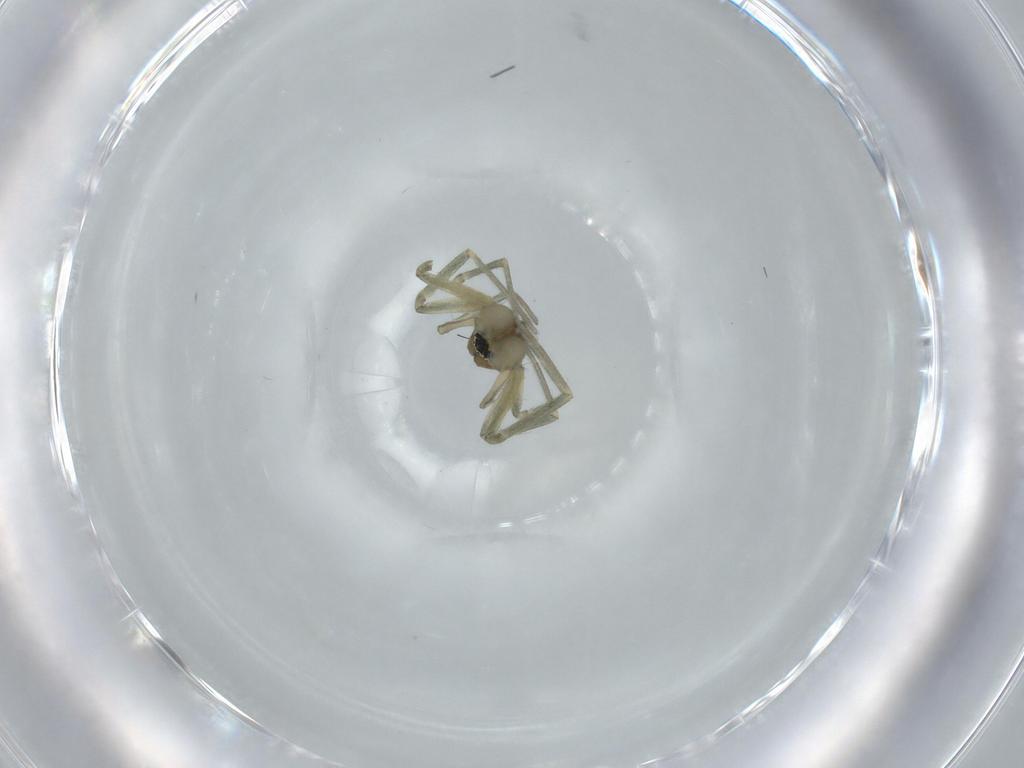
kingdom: Animalia
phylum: Arthropoda
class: Arachnida
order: Araneae
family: Linyphiidae
